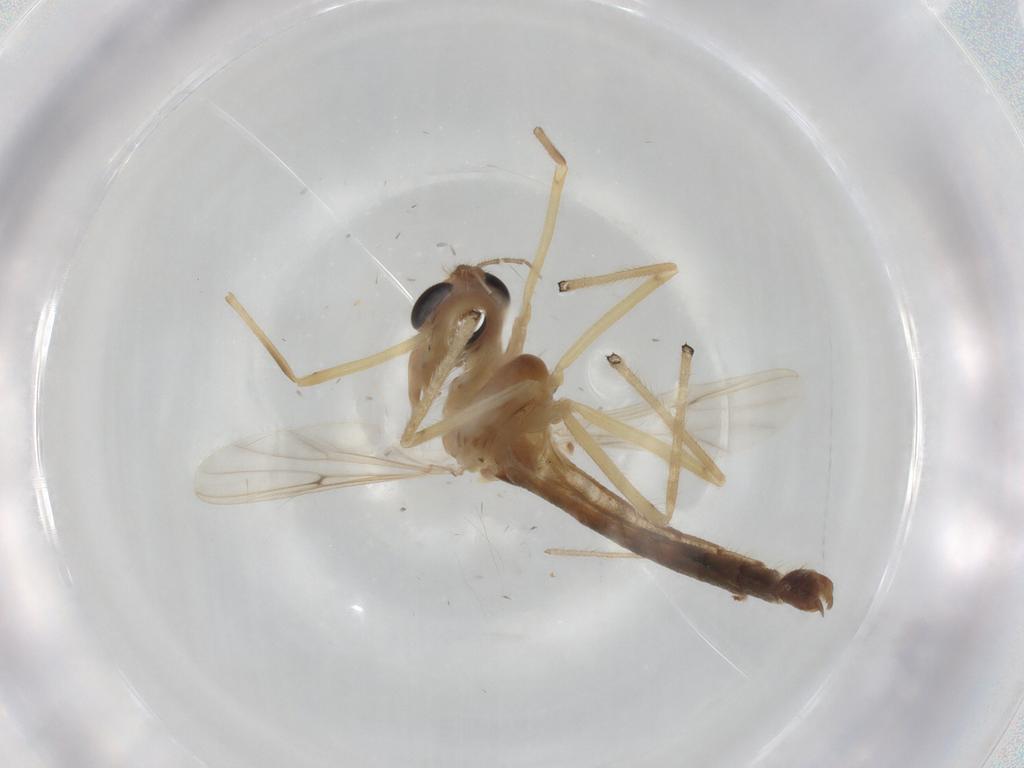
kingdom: Animalia
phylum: Arthropoda
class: Insecta
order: Diptera
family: Chironomidae
